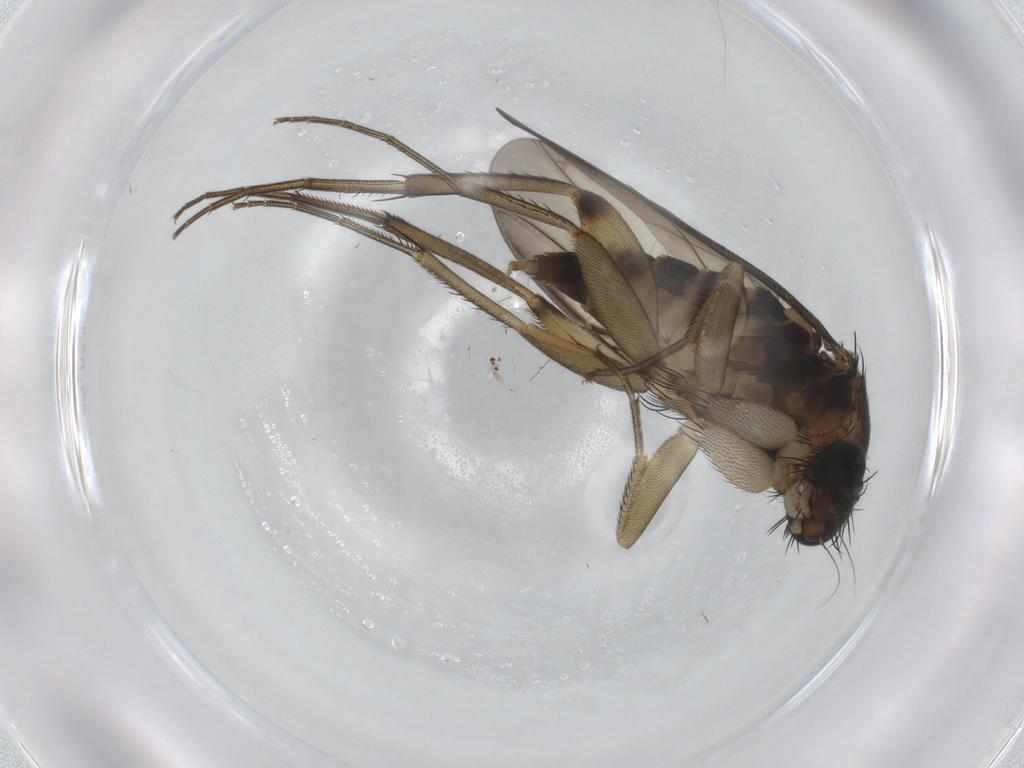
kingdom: Animalia
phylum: Arthropoda
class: Insecta
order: Diptera
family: Phoridae
